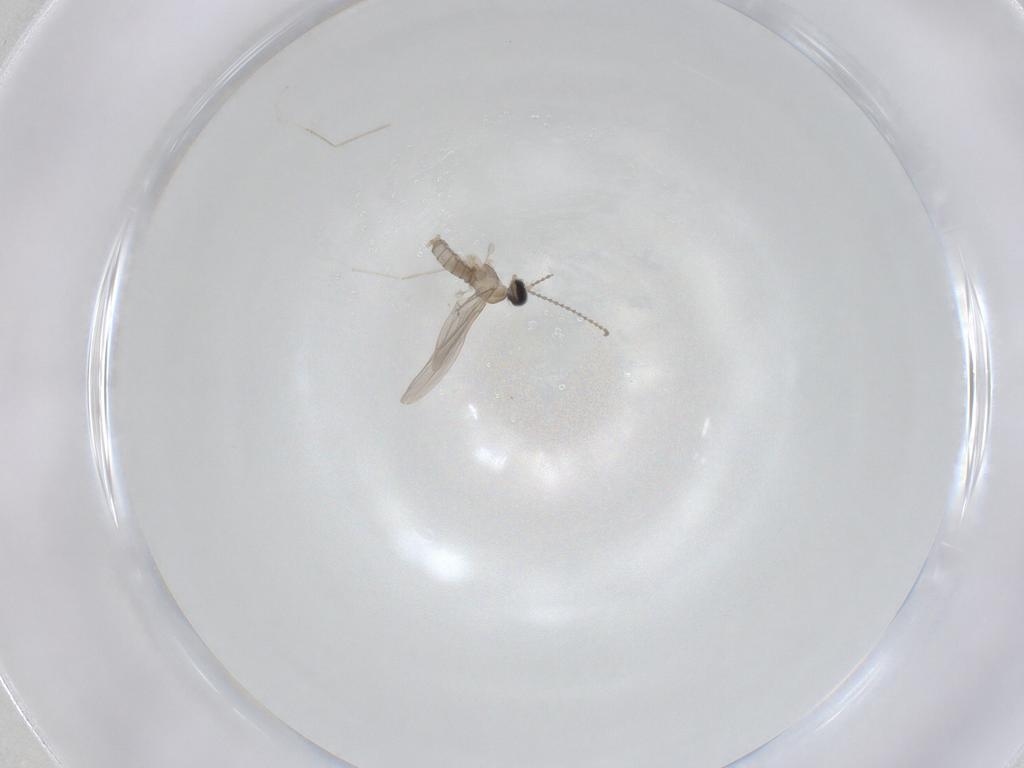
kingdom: Animalia
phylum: Arthropoda
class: Insecta
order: Diptera
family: Cecidomyiidae
